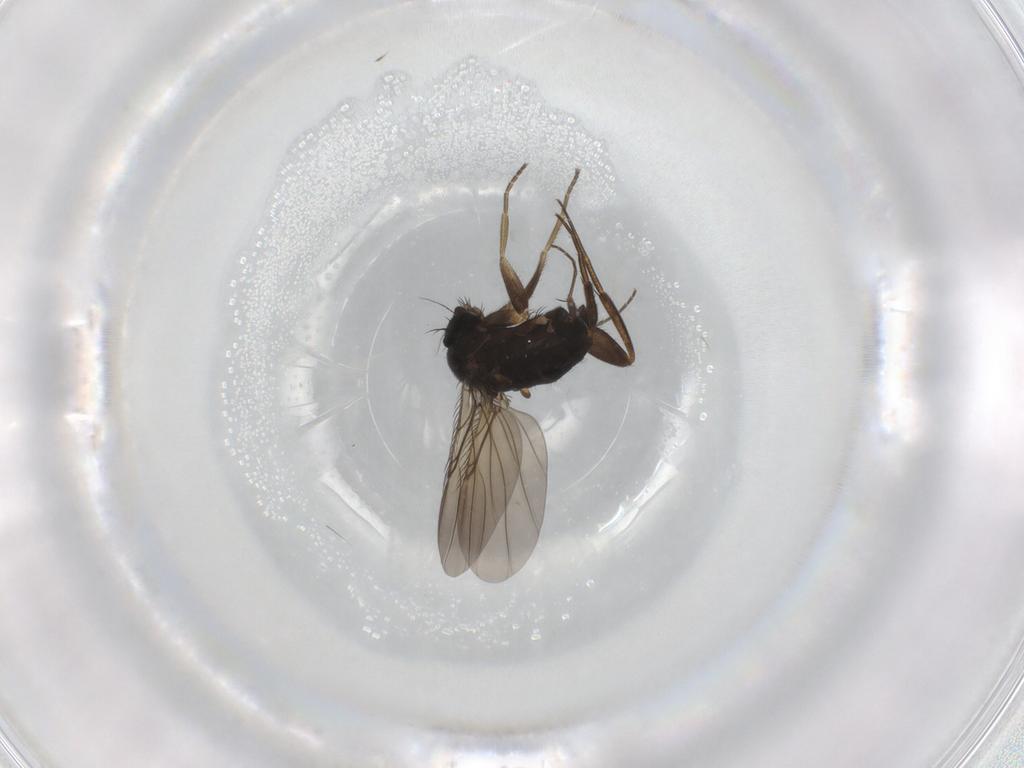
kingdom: Animalia
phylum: Arthropoda
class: Insecta
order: Diptera
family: Phoridae
